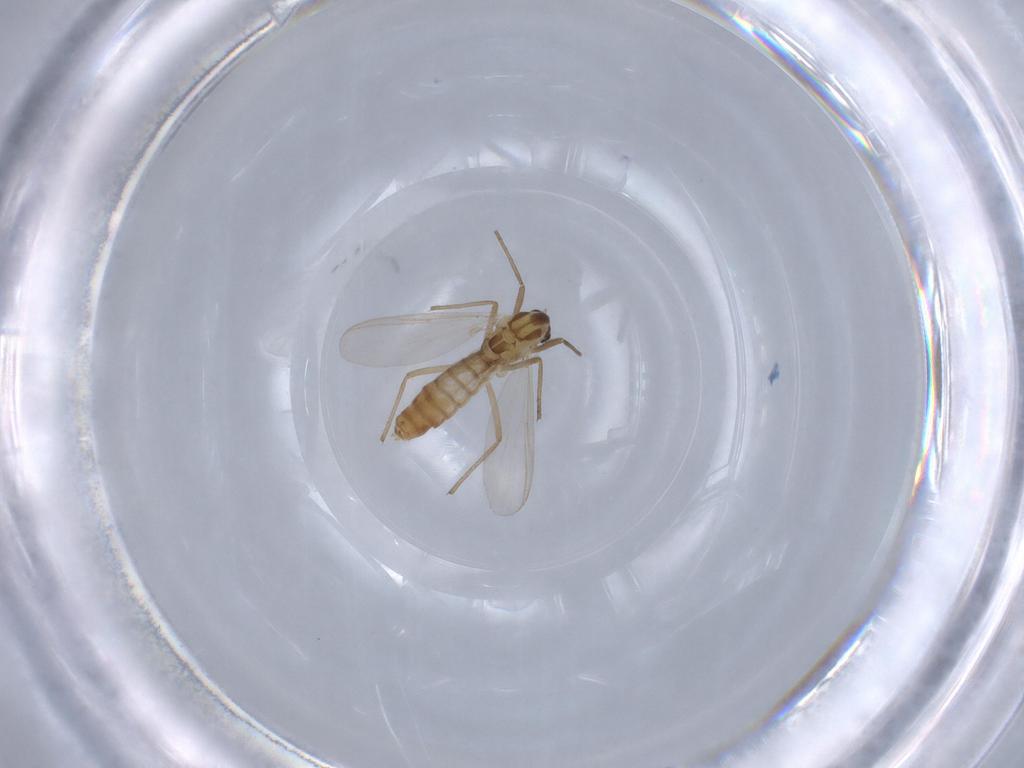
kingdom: Animalia
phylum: Arthropoda
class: Insecta
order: Diptera
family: Chironomidae
